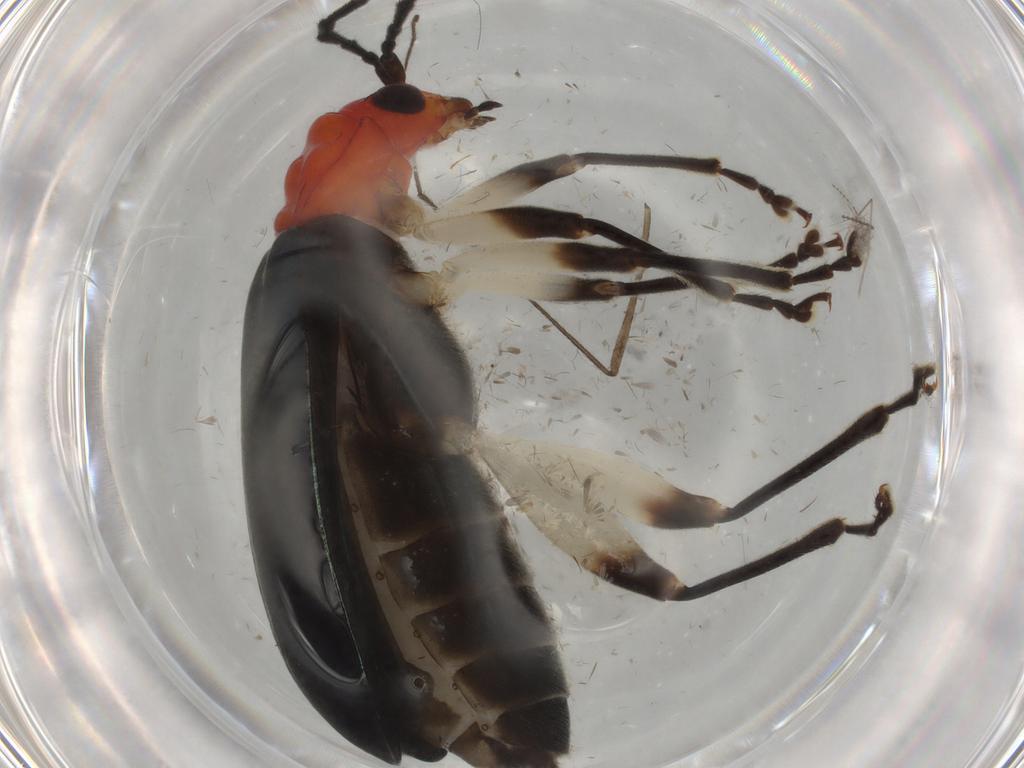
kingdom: Animalia
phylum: Arthropoda
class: Insecta
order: Coleoptera
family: Chrysomelidae
